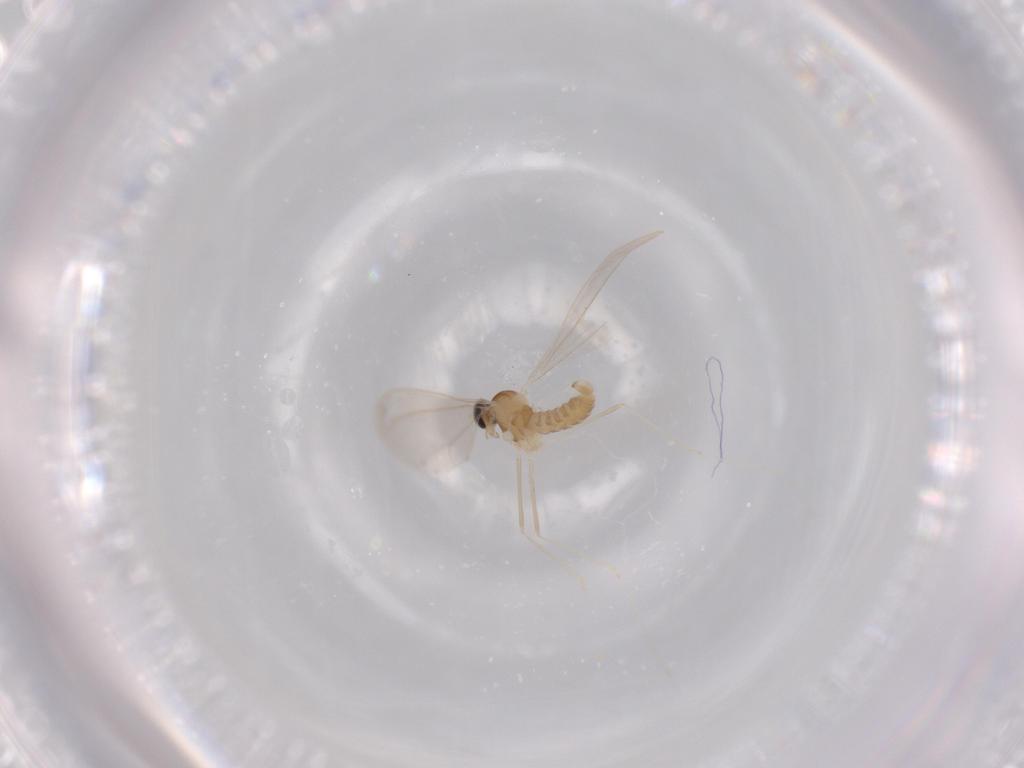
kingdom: Animalia
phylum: Arthropoda
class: Insecta
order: Diptera
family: Cecidomyiidae
